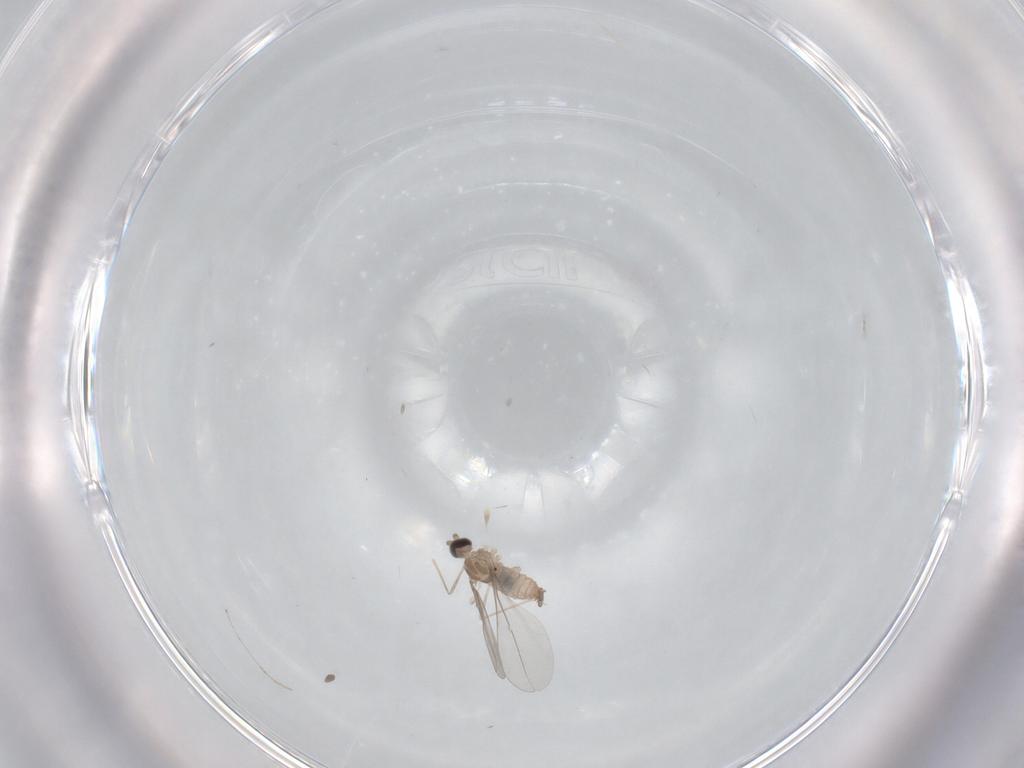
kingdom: Animalia
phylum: Arthropoda
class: Insecta
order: Diptera
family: Cecidomyiidae
